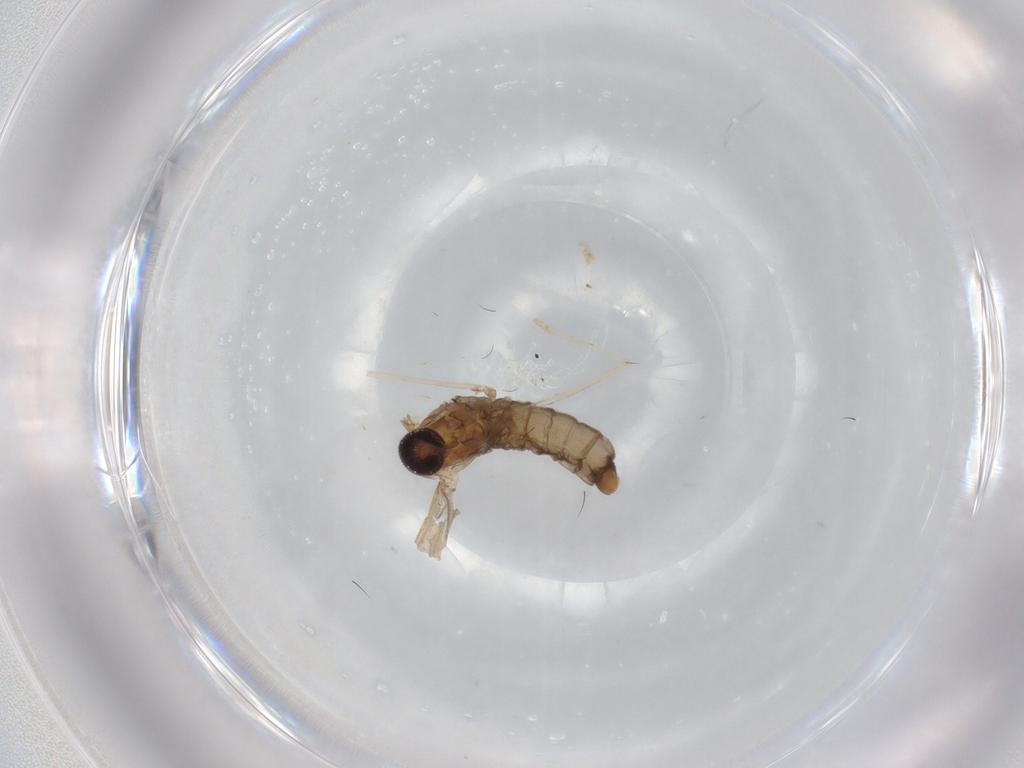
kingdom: Animalia
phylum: Arthropoda
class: Insecta
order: Diptera
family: Cecidomyiidae
